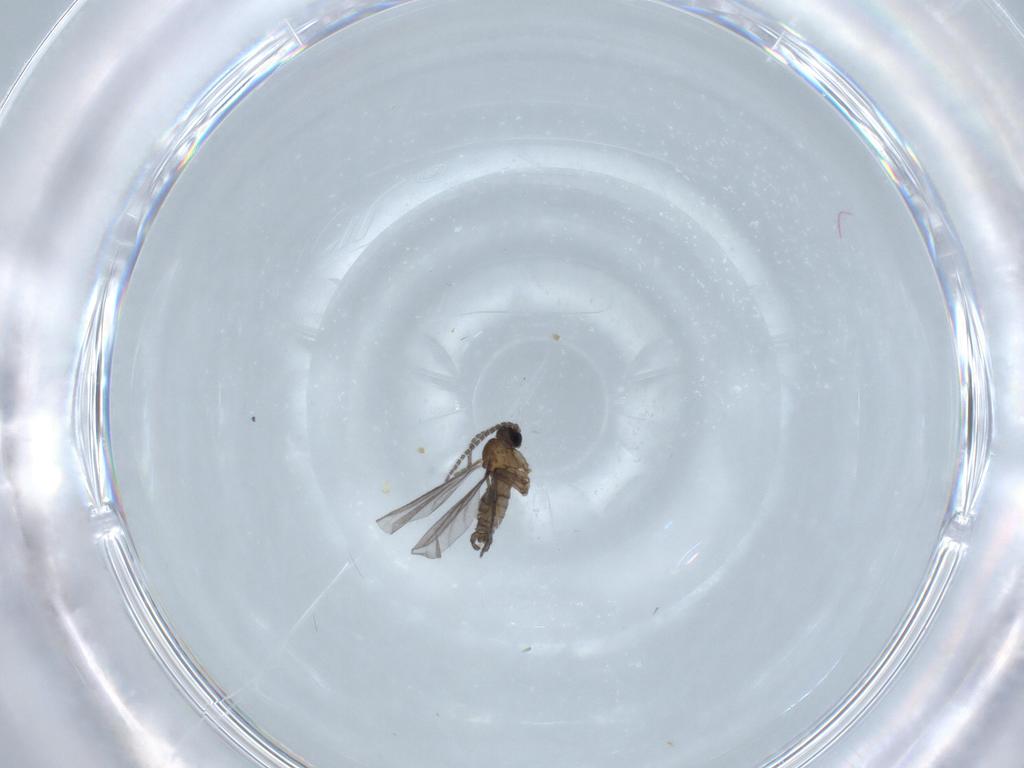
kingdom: Animalia
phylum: Arthropoda
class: Insecta
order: Diptera
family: Sciaridae
